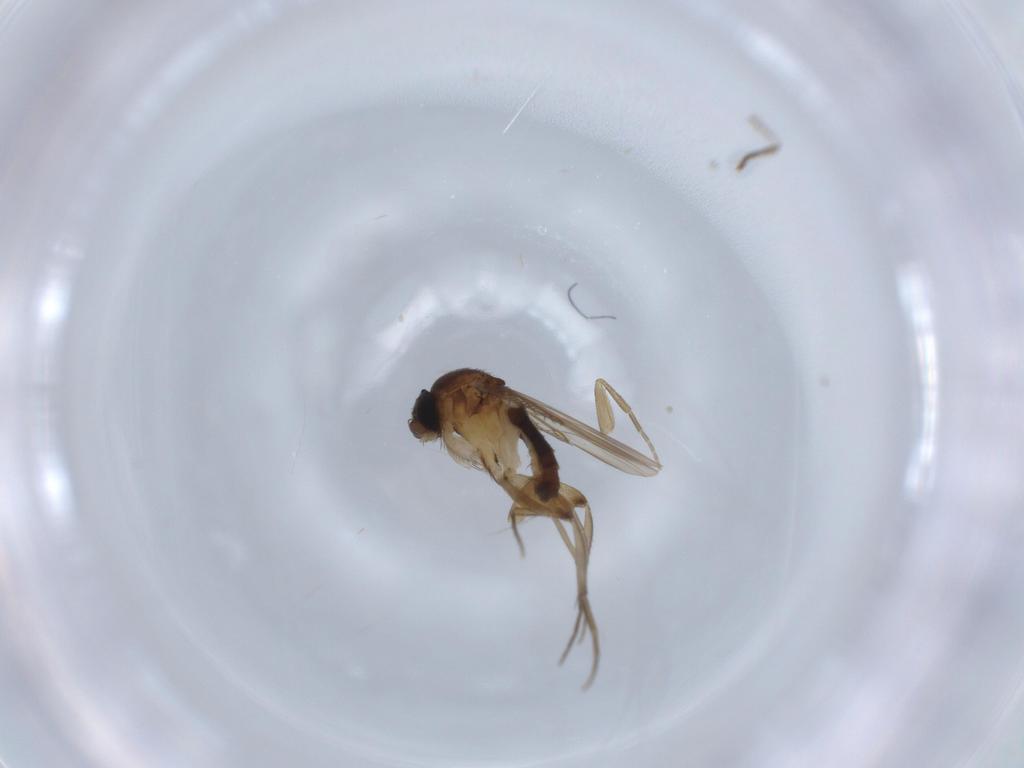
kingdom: Animalia
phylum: Arthropoda
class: Insecta
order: Diptera
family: Phoridae
